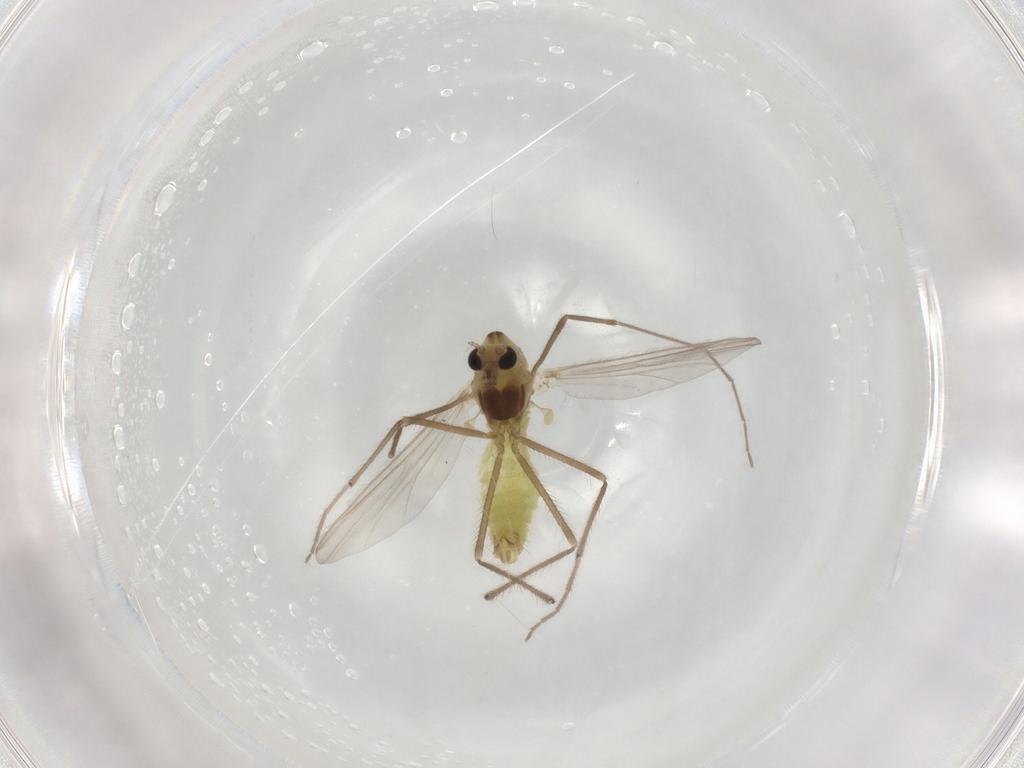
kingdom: Animalia
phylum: Arthropoda
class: Insecta
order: Diptera
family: Chironomidae
